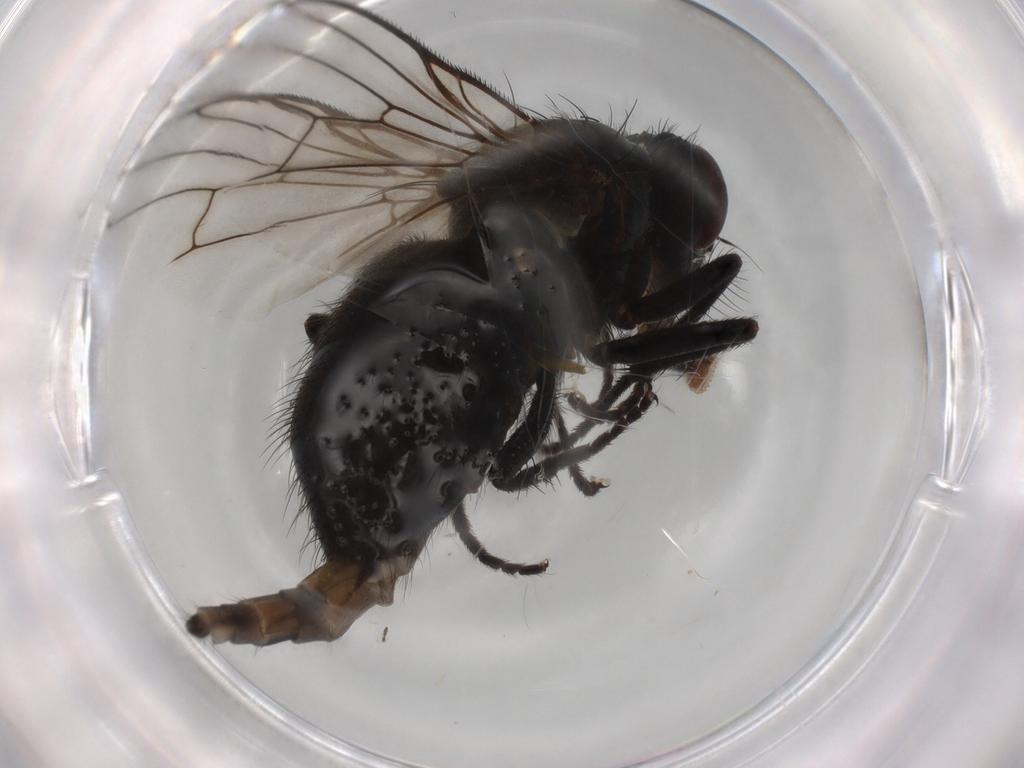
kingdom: Animalia
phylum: Arthropoda
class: Insecta
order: Diptera
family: Muscidae
